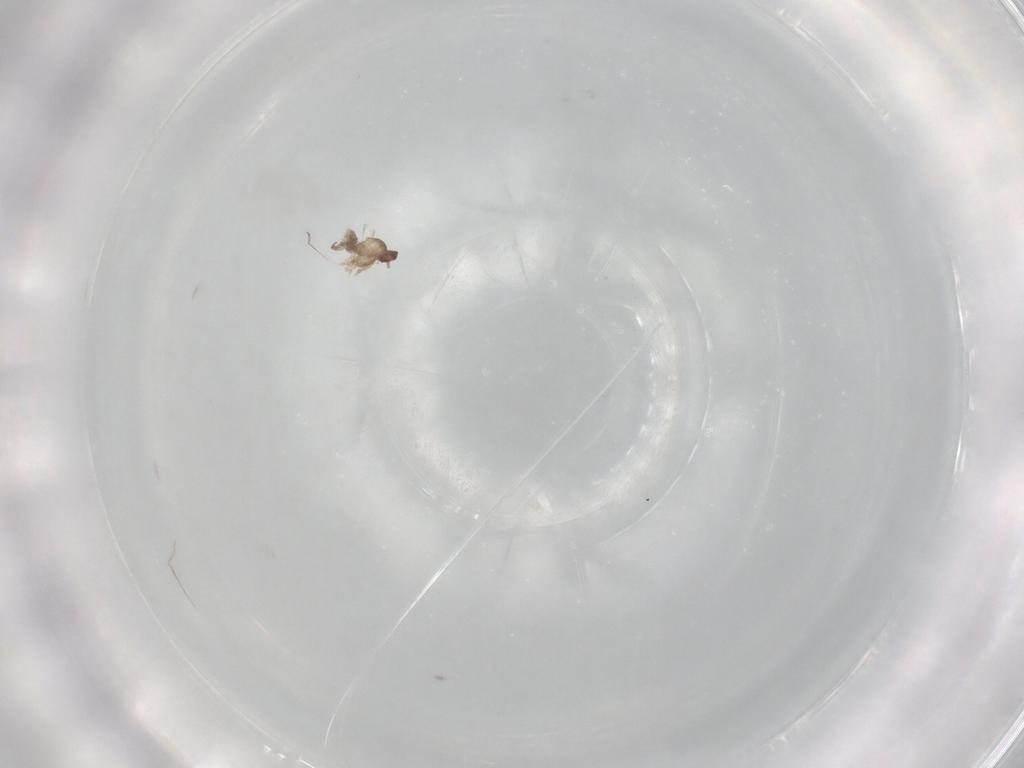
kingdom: Animalia
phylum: Arthropoda
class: Insecta
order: Diptera
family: Cecidomyiidae
